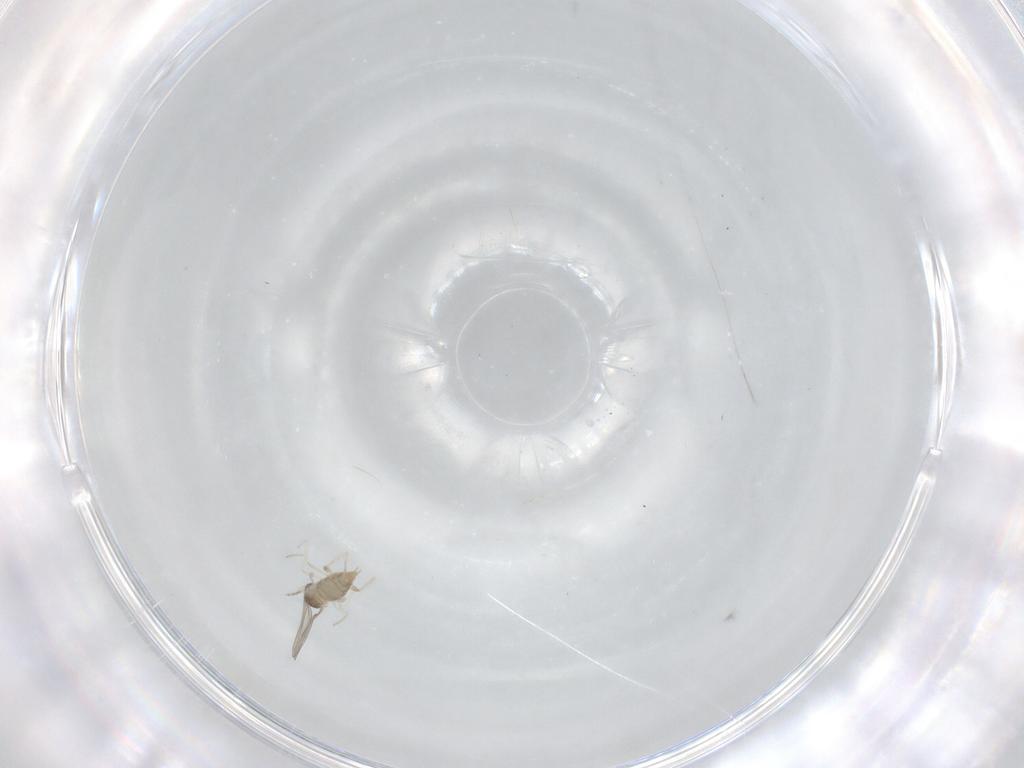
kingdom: Animalia
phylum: Arthropoda
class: Insecta
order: Diptera
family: Cecidomyiidae
